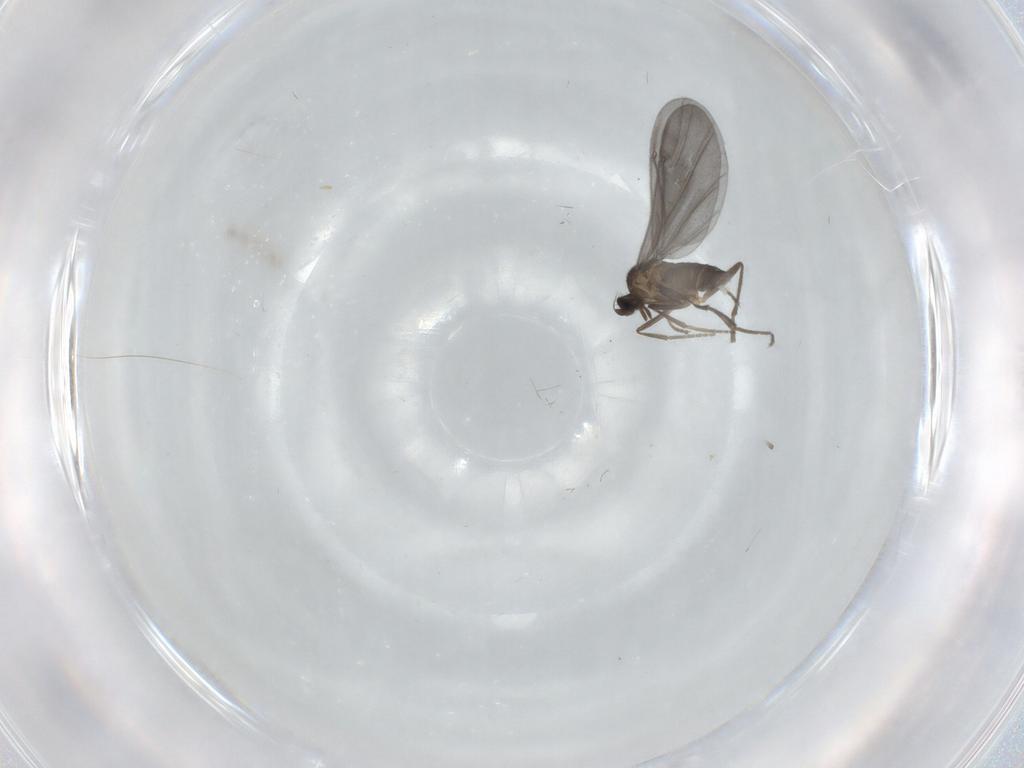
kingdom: Animalia
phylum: Arthropoda
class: Insecta
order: Diptera
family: Phoridae
